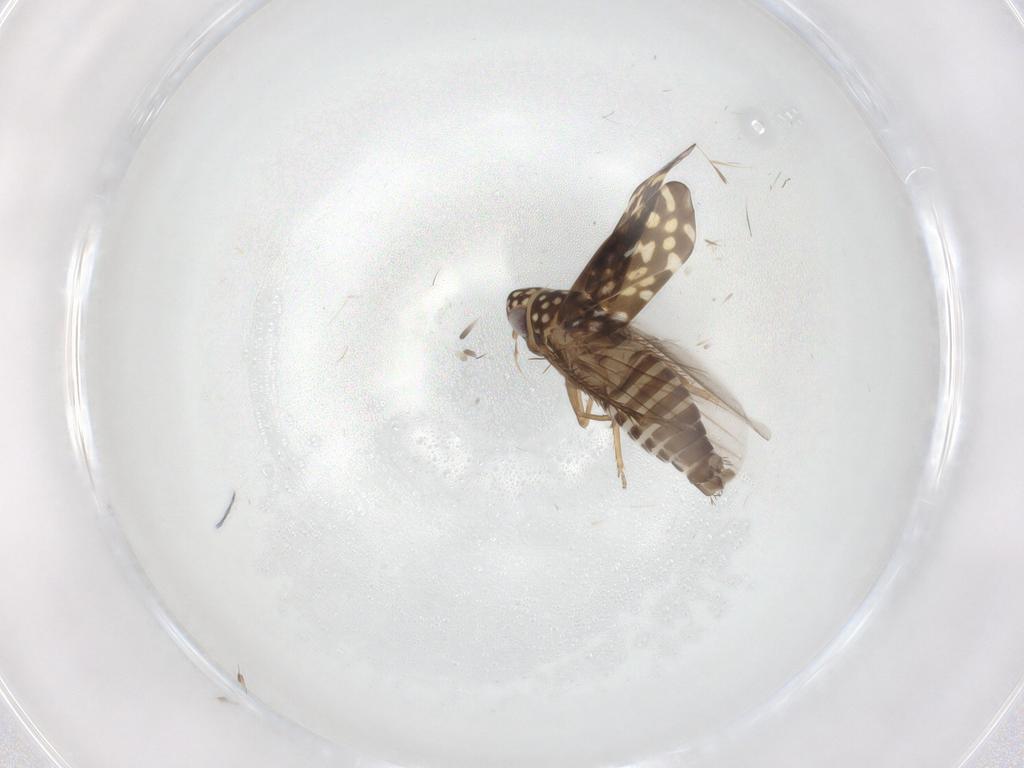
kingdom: Animalia
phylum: Arthropoda
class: Insecta
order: Hemiptera
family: Cicadellidae
